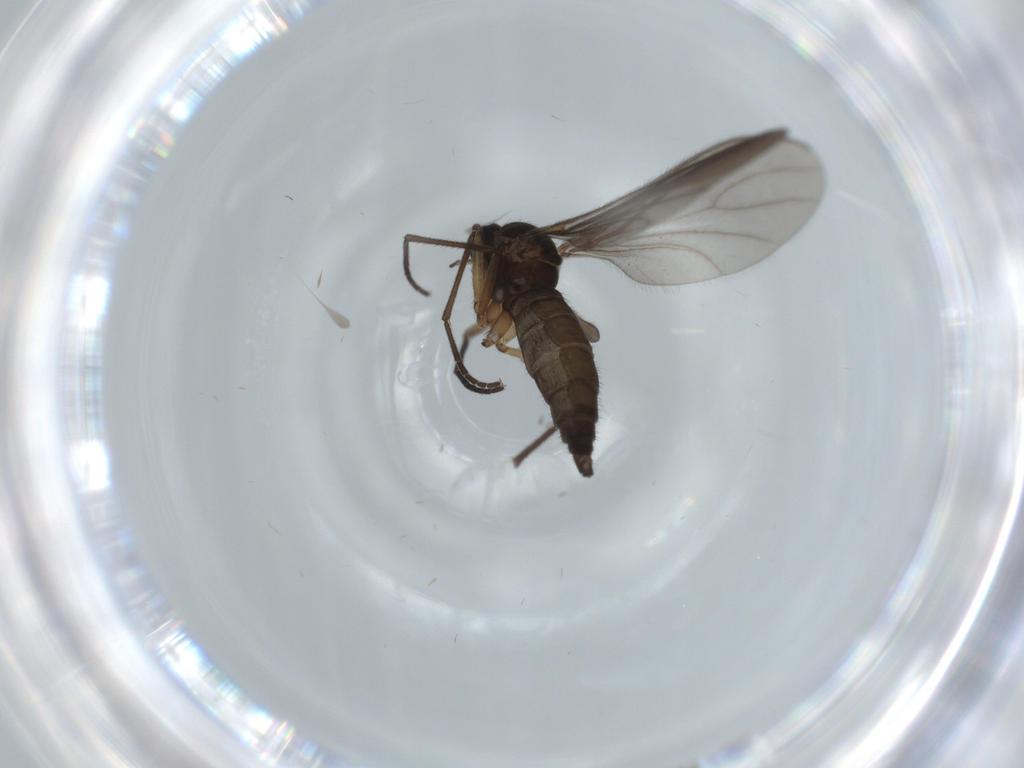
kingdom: Animalia
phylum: Arthropoda
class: Insecta
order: Diptera
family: Sciaridae
